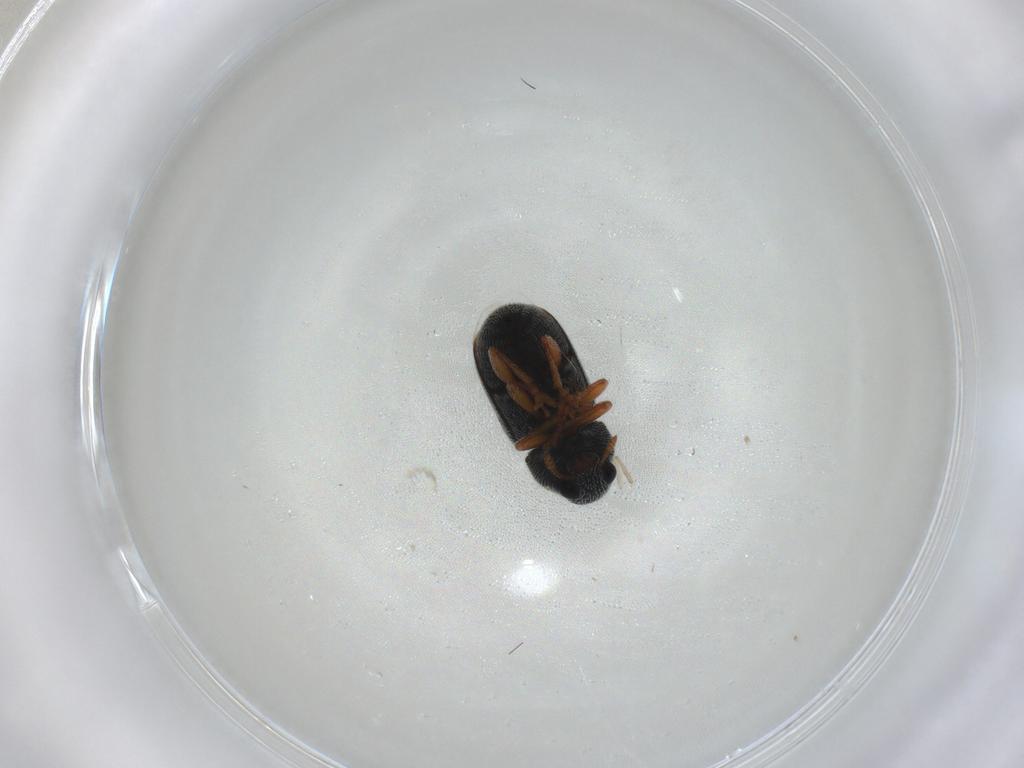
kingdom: Animalia
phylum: Arthropoda
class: Insecta
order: Coleoptera
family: Anthribidae
